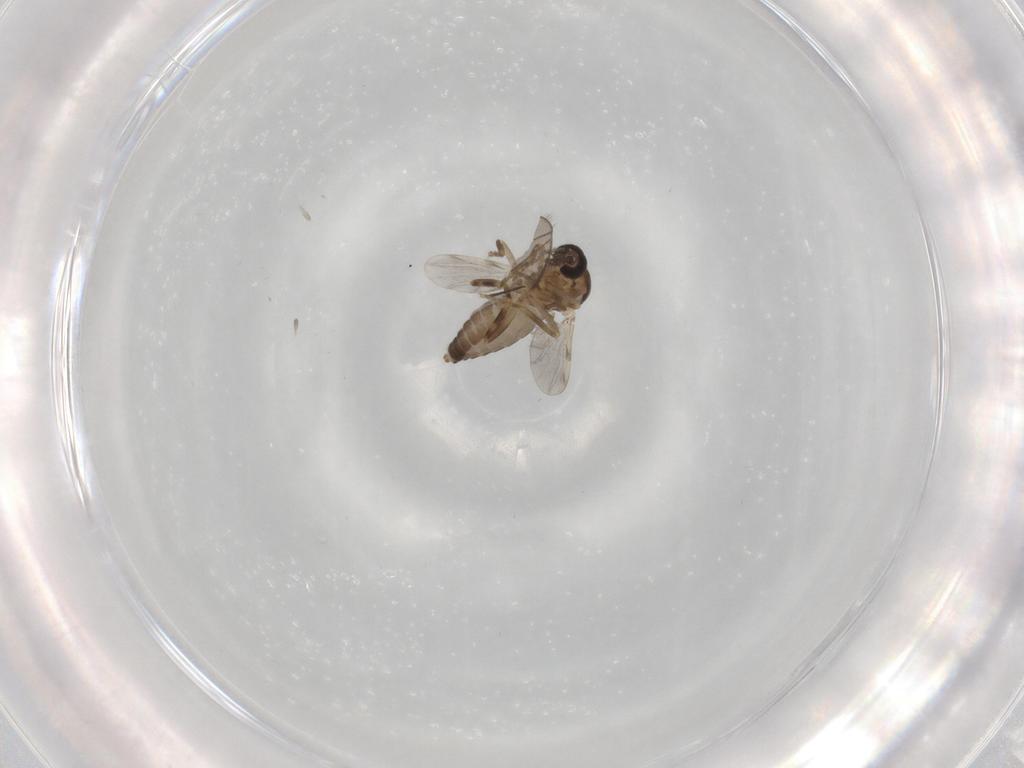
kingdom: Animalia
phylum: Arthropoda
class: Insecta
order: Diptera
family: Ceratopogonidae
